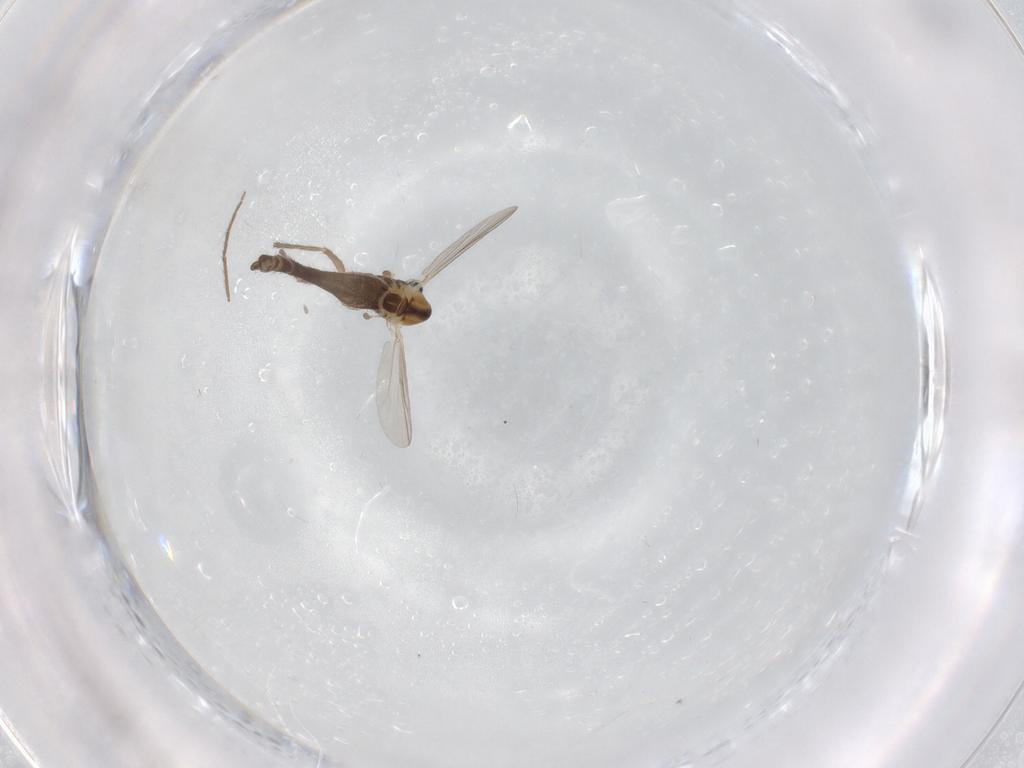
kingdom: Animalia
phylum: Arthropoda
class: Insecta
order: Diptera
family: Chironomidae
